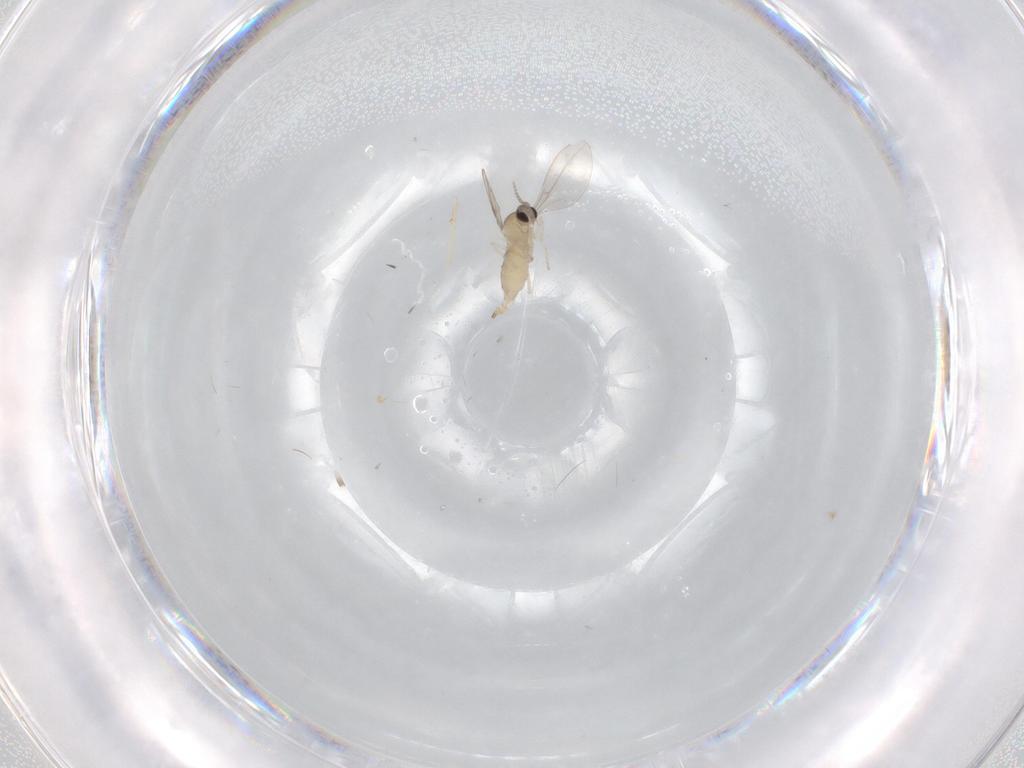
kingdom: Animalia
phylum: Arthropoda
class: Insecta
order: Diptera
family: Cecidomyiidae
